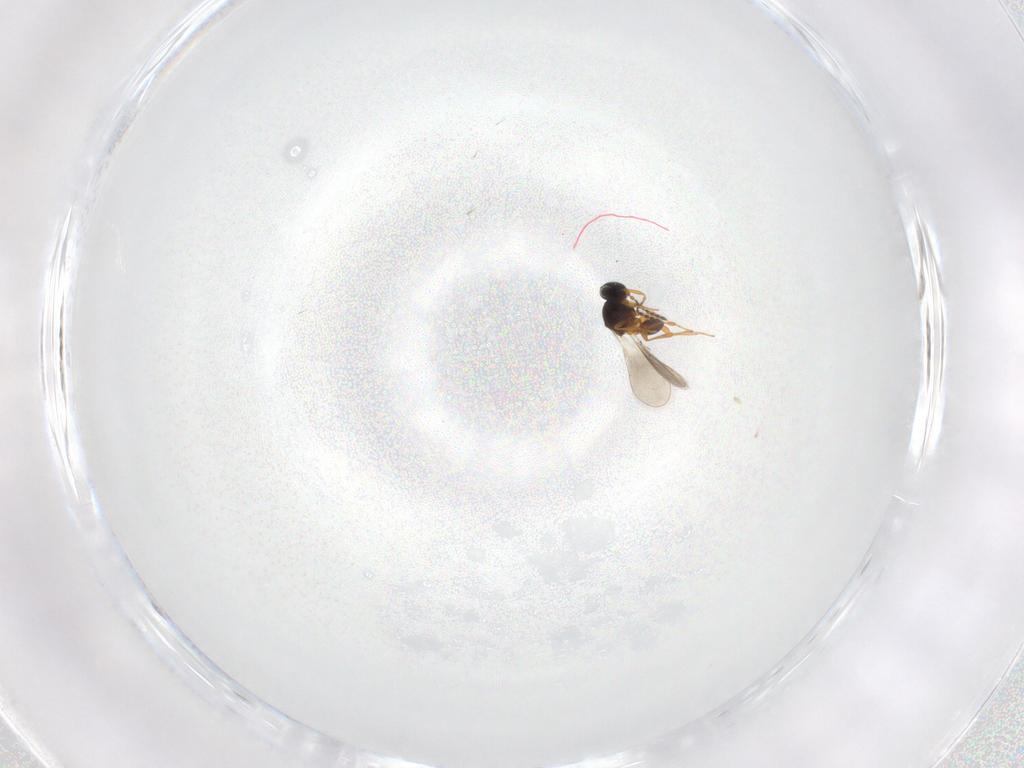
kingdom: Animalia
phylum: Arthropoda
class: Insecta
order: Hymenoptera
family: Platygastridae
